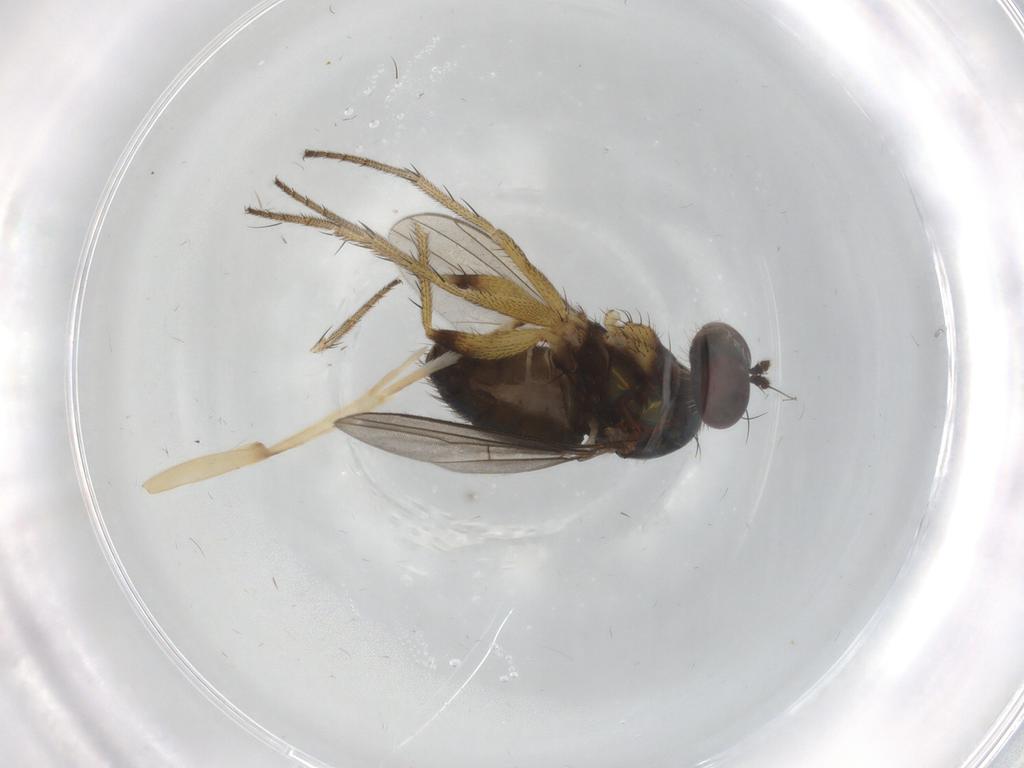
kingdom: Animalia
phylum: Arthropoda
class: Insecta
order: Diptera
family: Dolichopodidae
